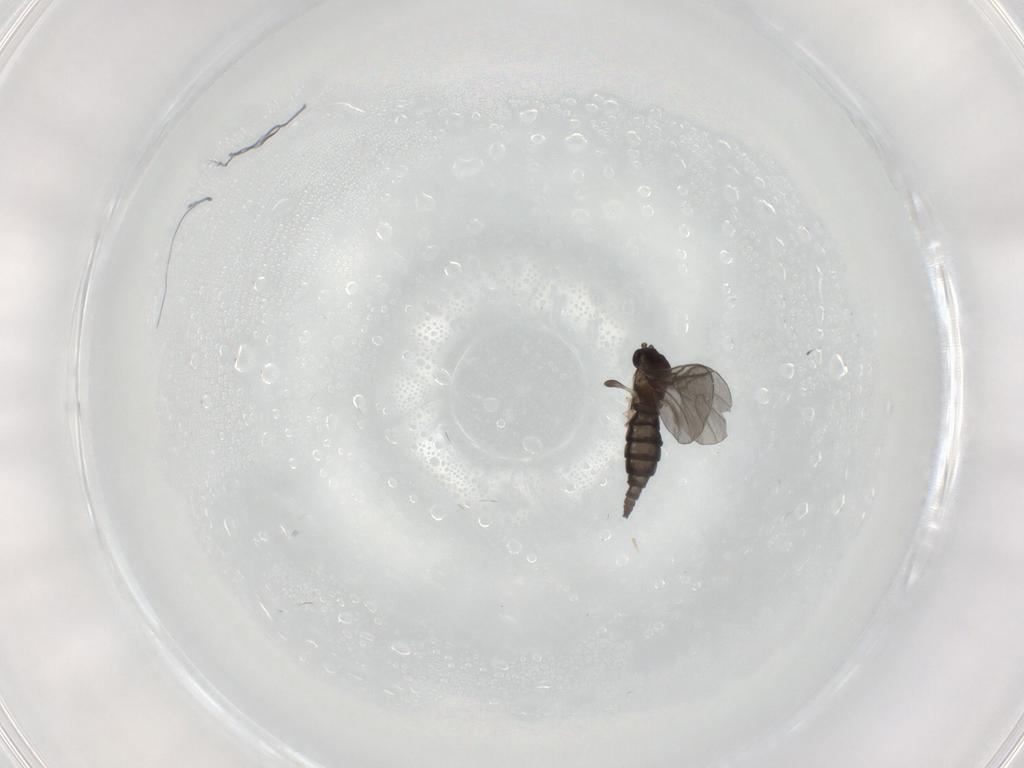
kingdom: Animalia
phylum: Arthropoda
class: Insecta
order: Diptera
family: Sciaridae
